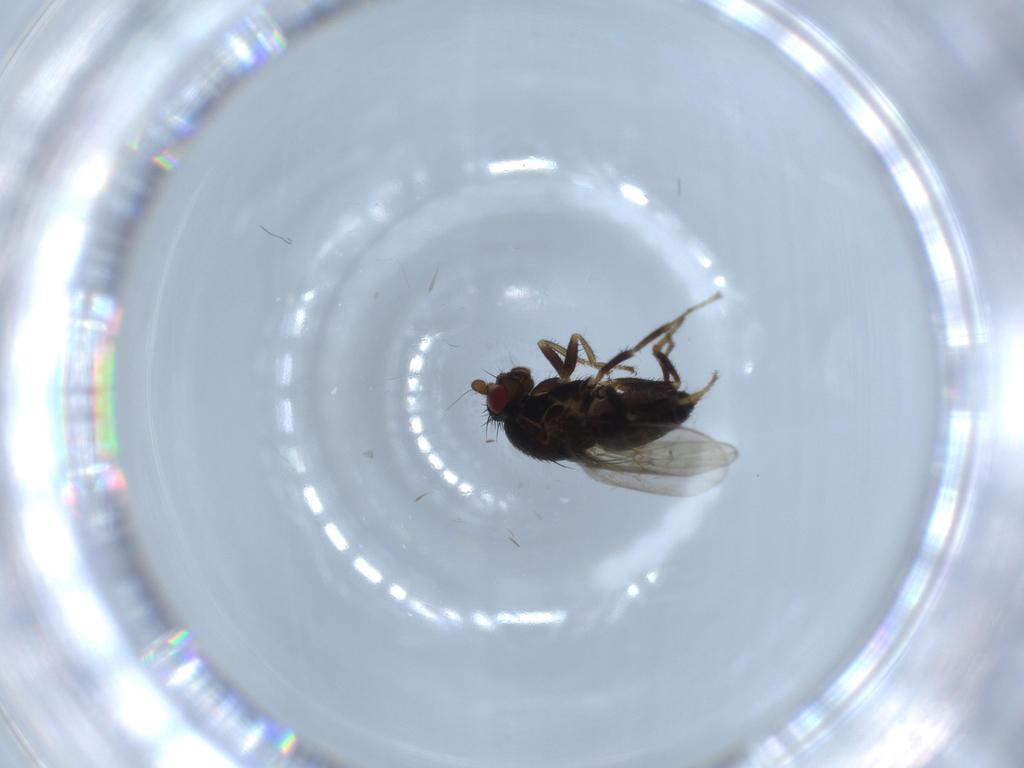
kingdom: Animalia
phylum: Arthropoda
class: Insecta
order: Diptera
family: Sphaeroceridae
